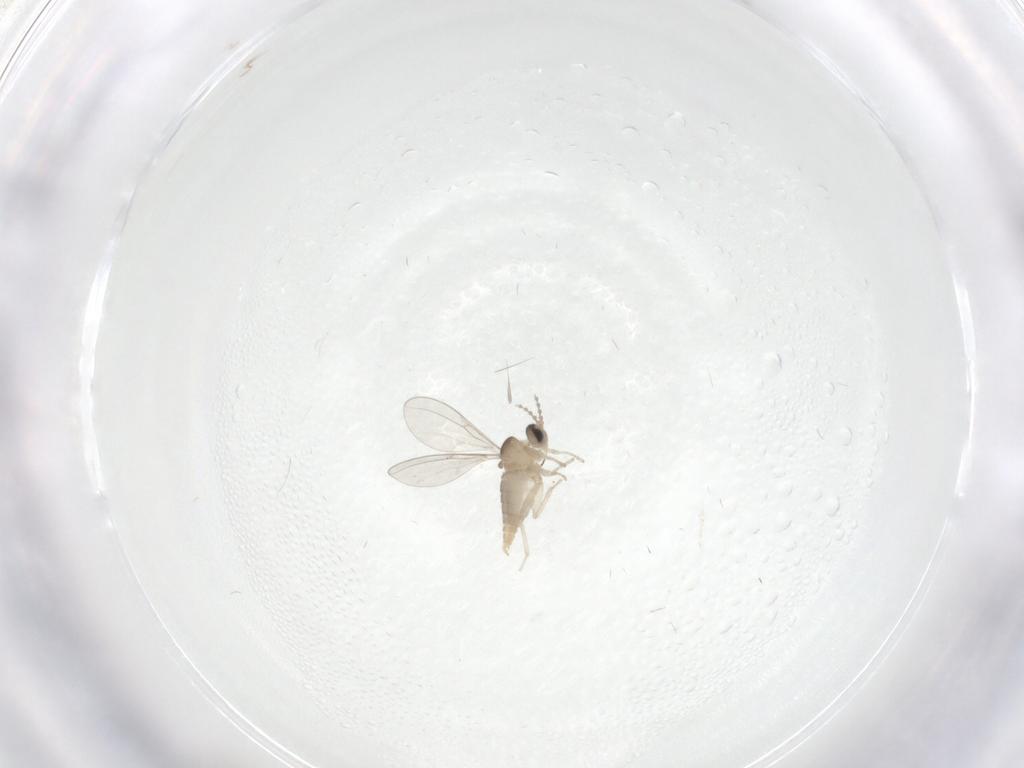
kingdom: Animalia
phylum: Arthropoda
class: Insecta
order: Diptera
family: Cecidomyiidae
